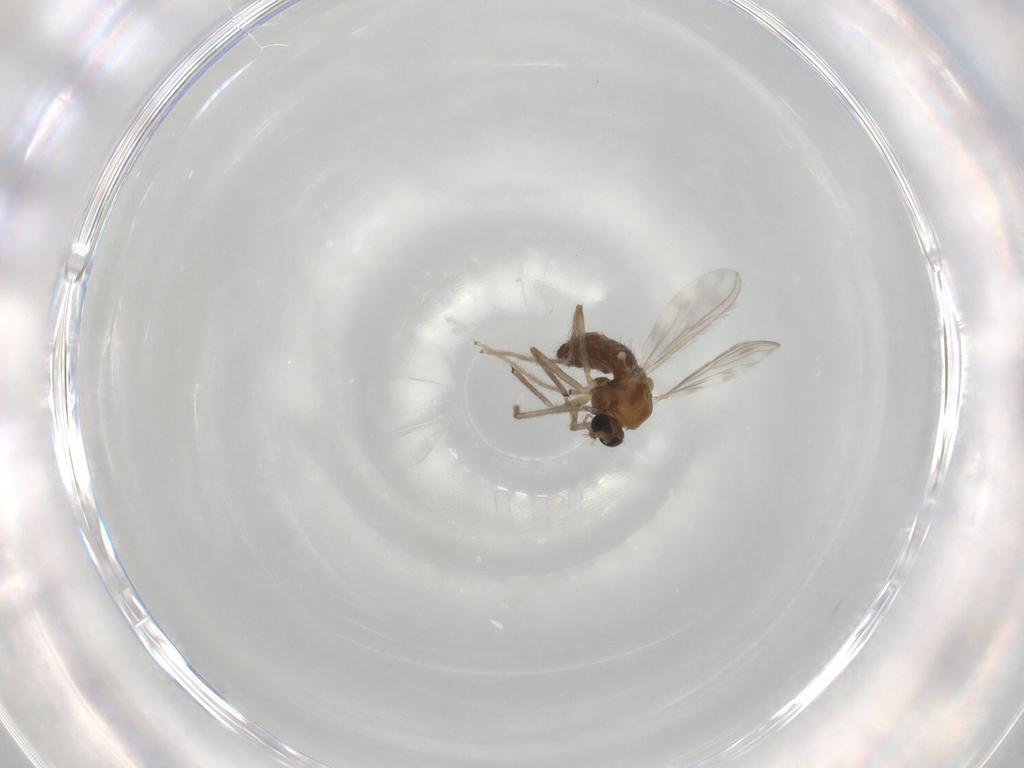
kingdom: Animalia
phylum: Arthropoda
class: Insecta
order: Diptera
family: Chironomidae
